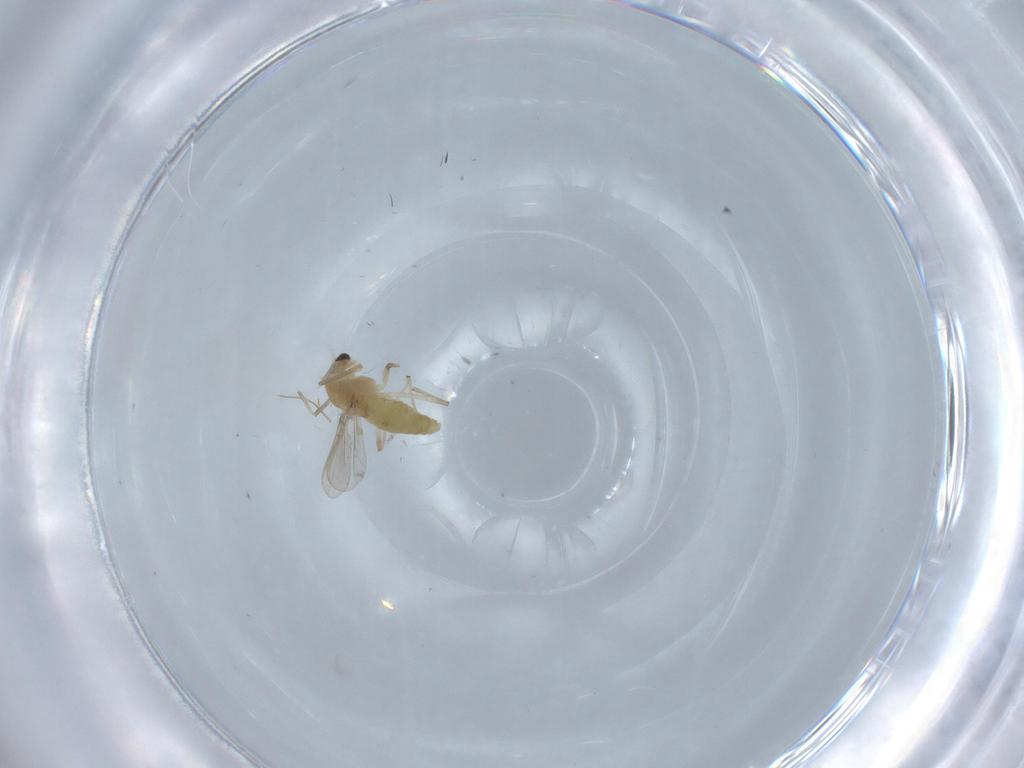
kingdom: Animalia
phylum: Arthropoda
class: Insecta
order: Diptera
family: Chironomidae
